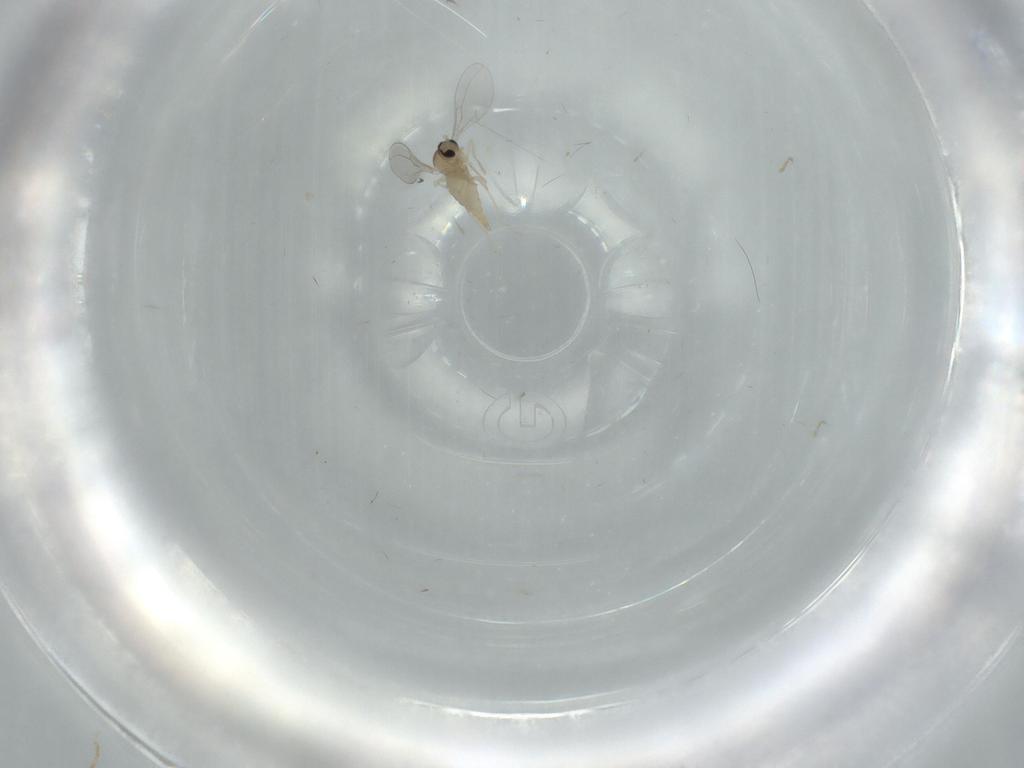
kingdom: Animalia
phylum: Arthropoda
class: Insecta
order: Diptera
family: Cecidomyiidae
